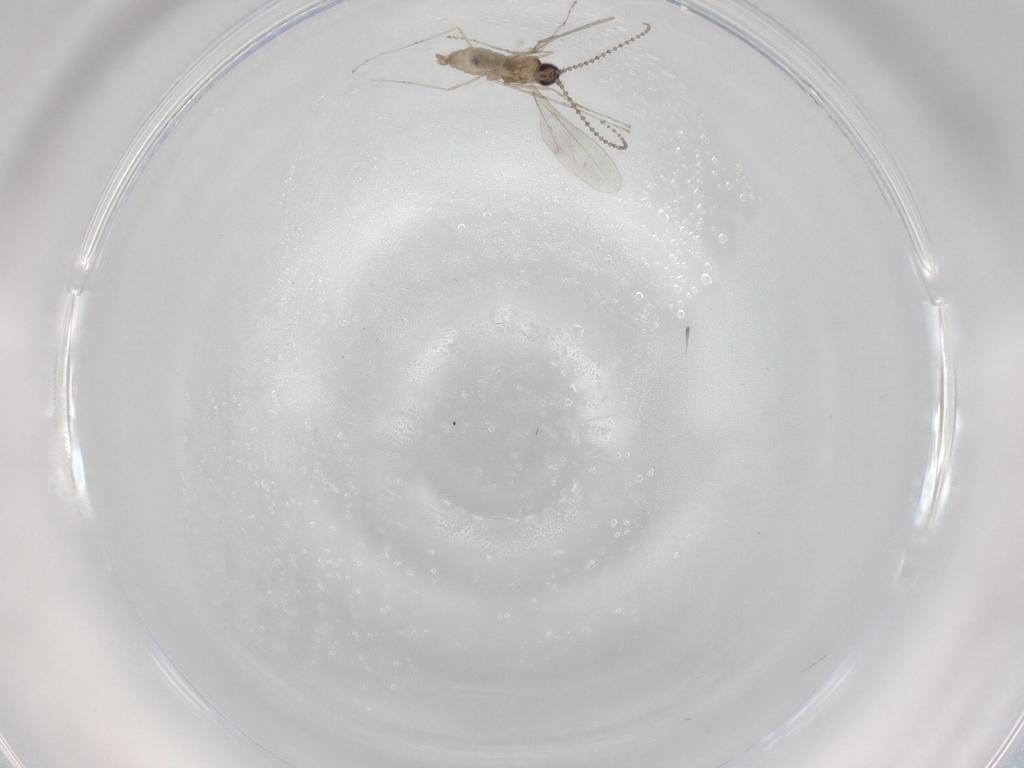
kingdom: Animalia
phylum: Arthropoda
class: Insecta
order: Diptera
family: Cecidomyiidae
